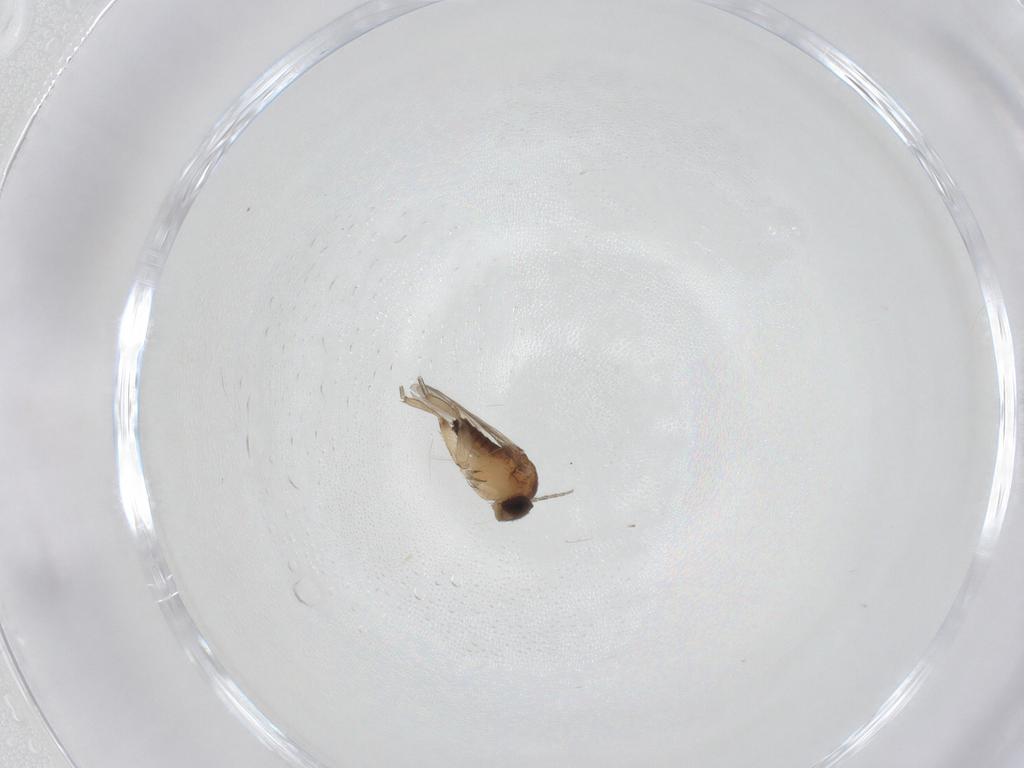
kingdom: Animalia
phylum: Arthropoda
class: Insecta
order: Diptera
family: Phoridae
